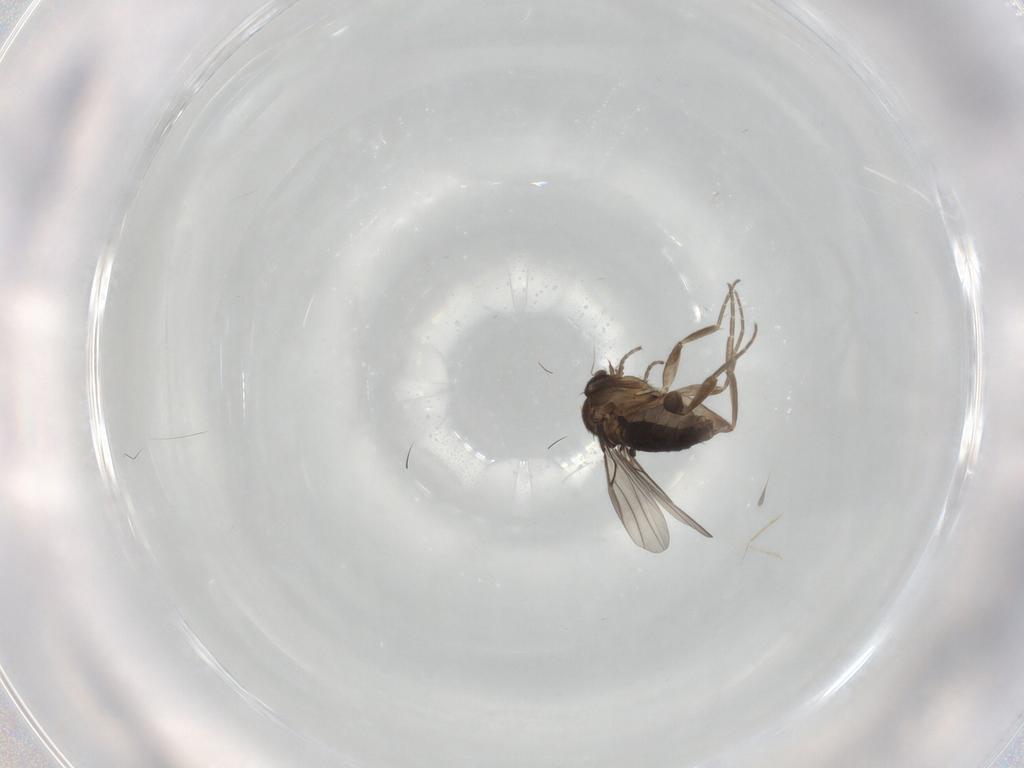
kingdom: Animalia
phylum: Arthropoda
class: Insecta
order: Diptera
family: Phoridae
